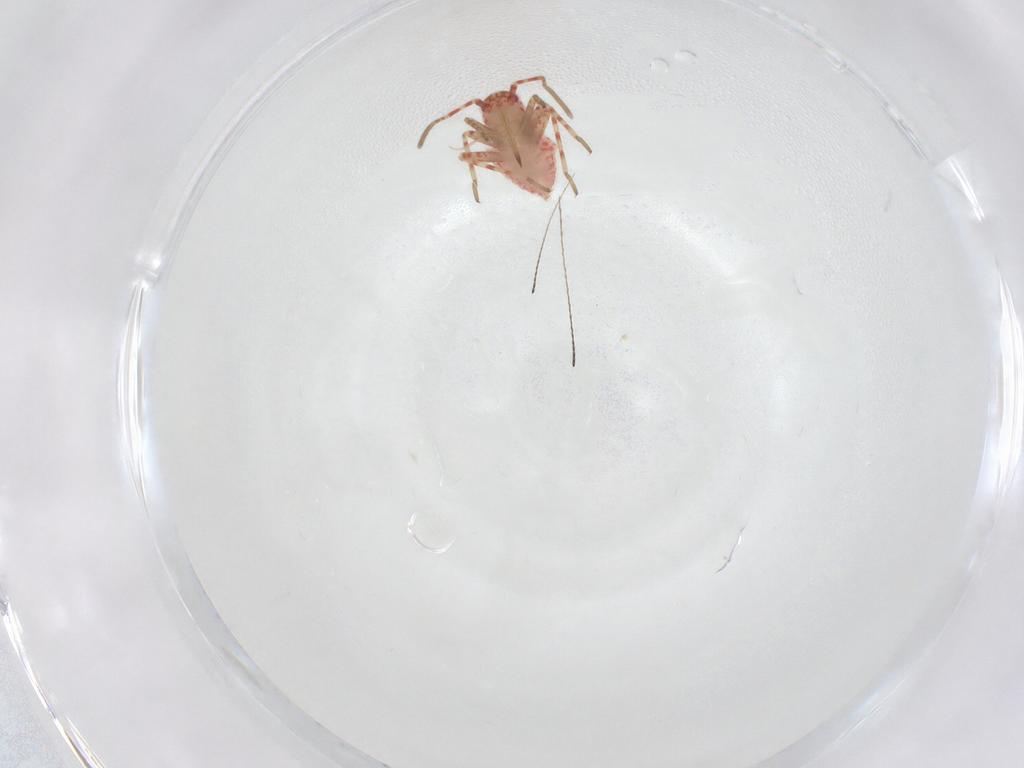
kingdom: Animalia
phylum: Arthropoda
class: Insecta
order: Hemiptera
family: Miridae
